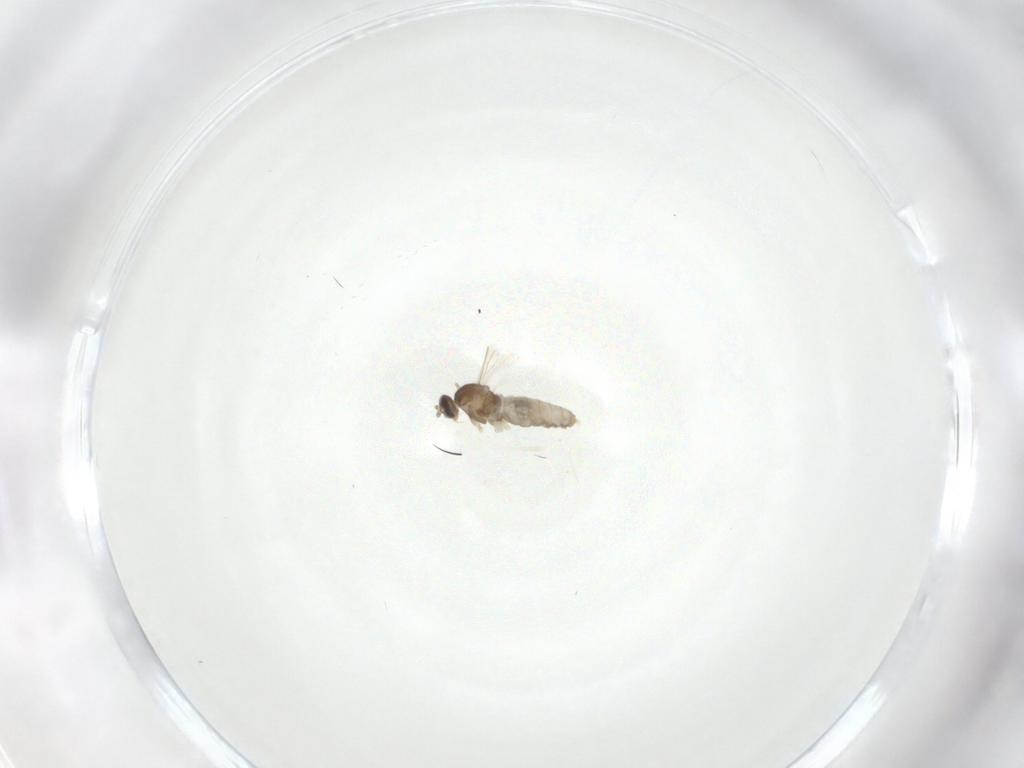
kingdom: Animalia
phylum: Arthropoda
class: Insecta
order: Diptera
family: Cecidomyiidae
